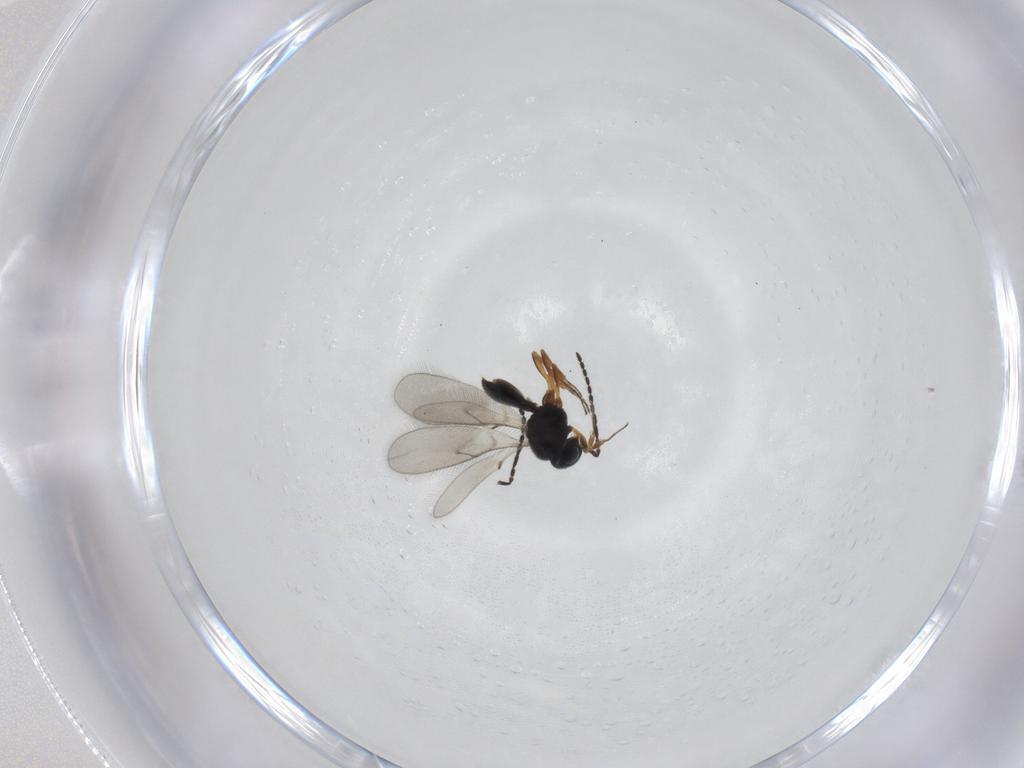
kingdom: Animalia
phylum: Arthropoda
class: Insecta
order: Hymenoptera
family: Scelionidae
